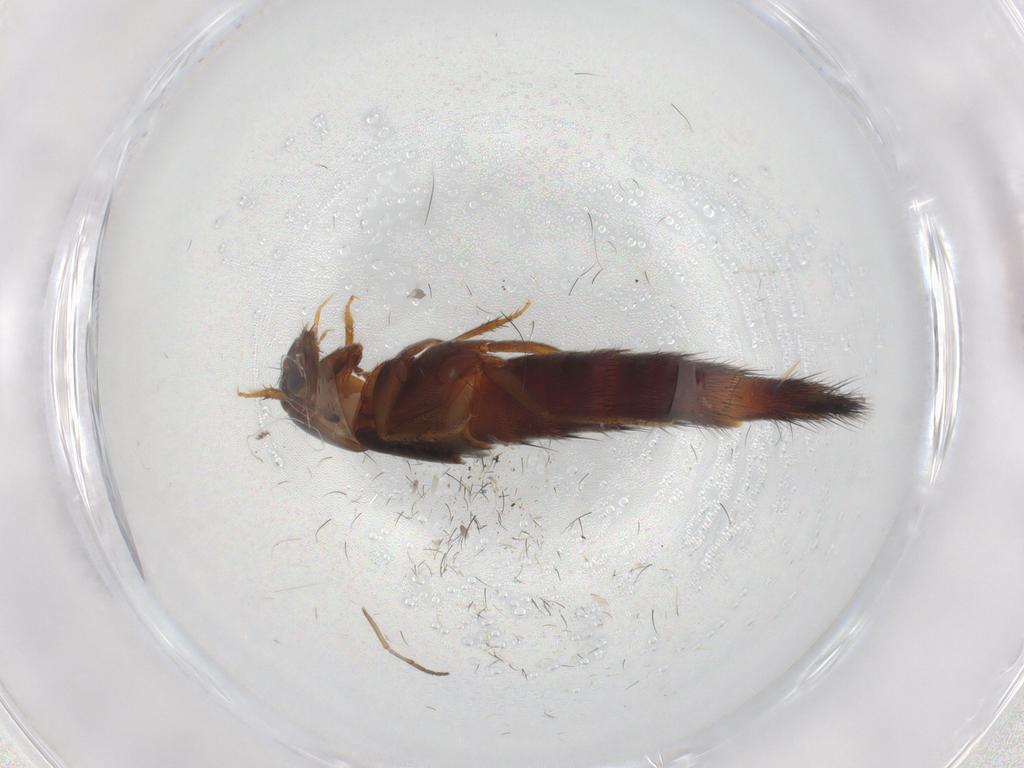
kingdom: Animalia
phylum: Arthropoda
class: Insecta
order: Coleoptera
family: Staphylinidae
